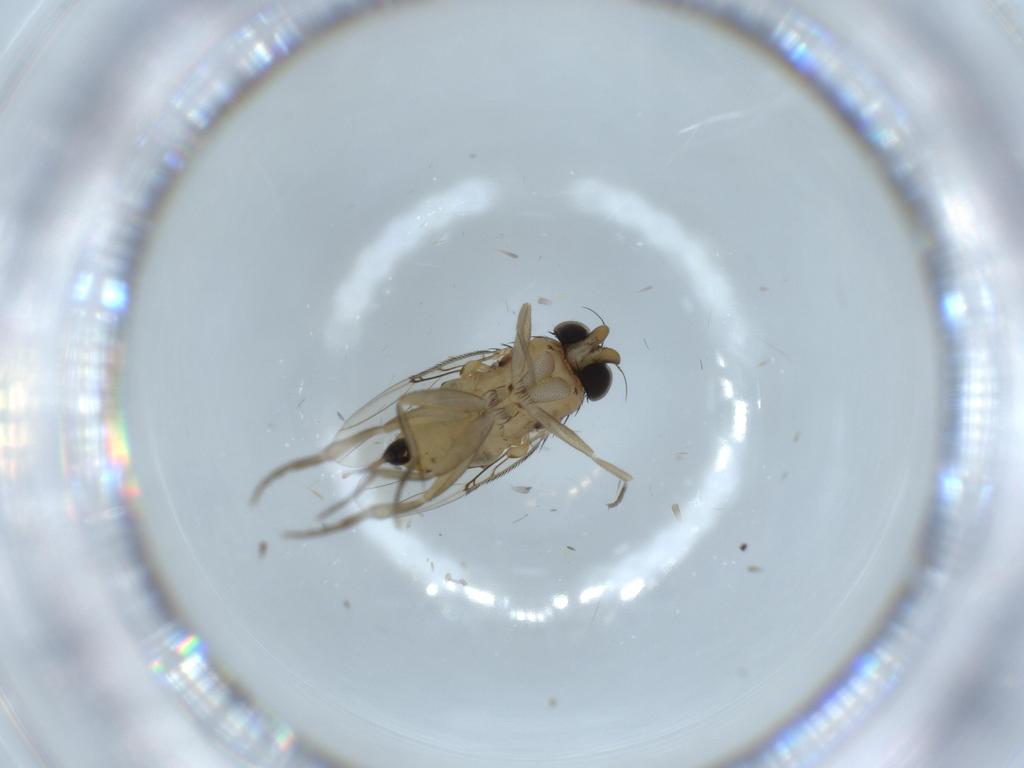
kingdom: Animalia
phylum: Arthropoda
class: Insecta
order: Diptera
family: Phoridae
